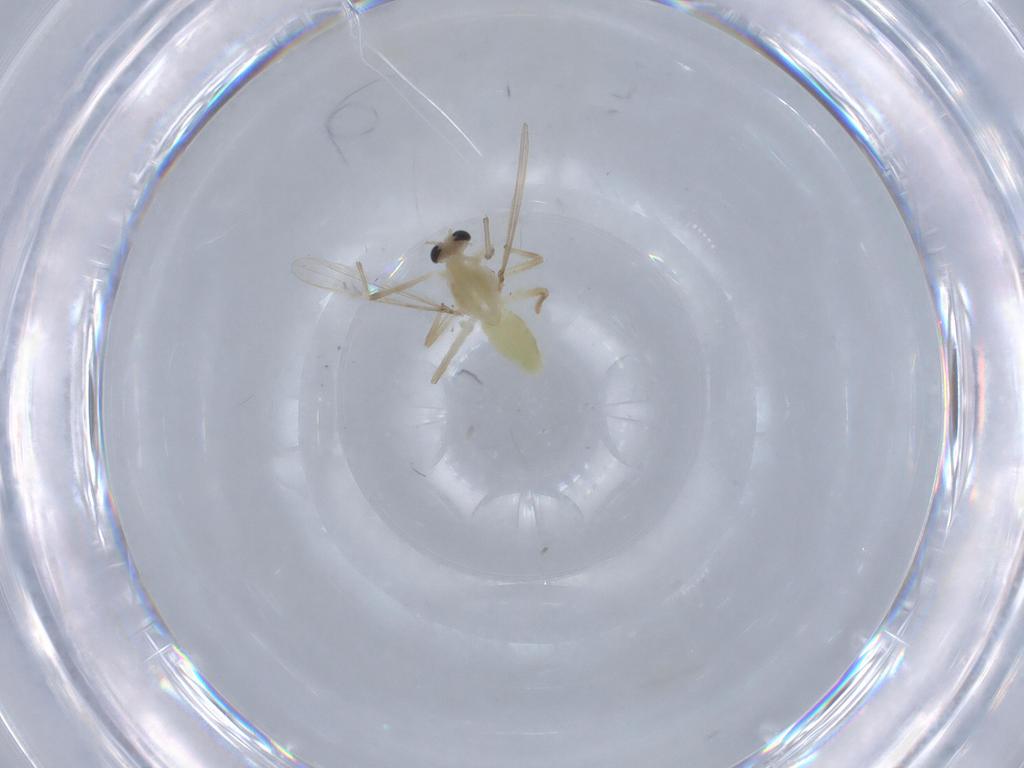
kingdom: Animalia
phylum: Arthropoda
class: Insecta
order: Diptera
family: Chironomidae
